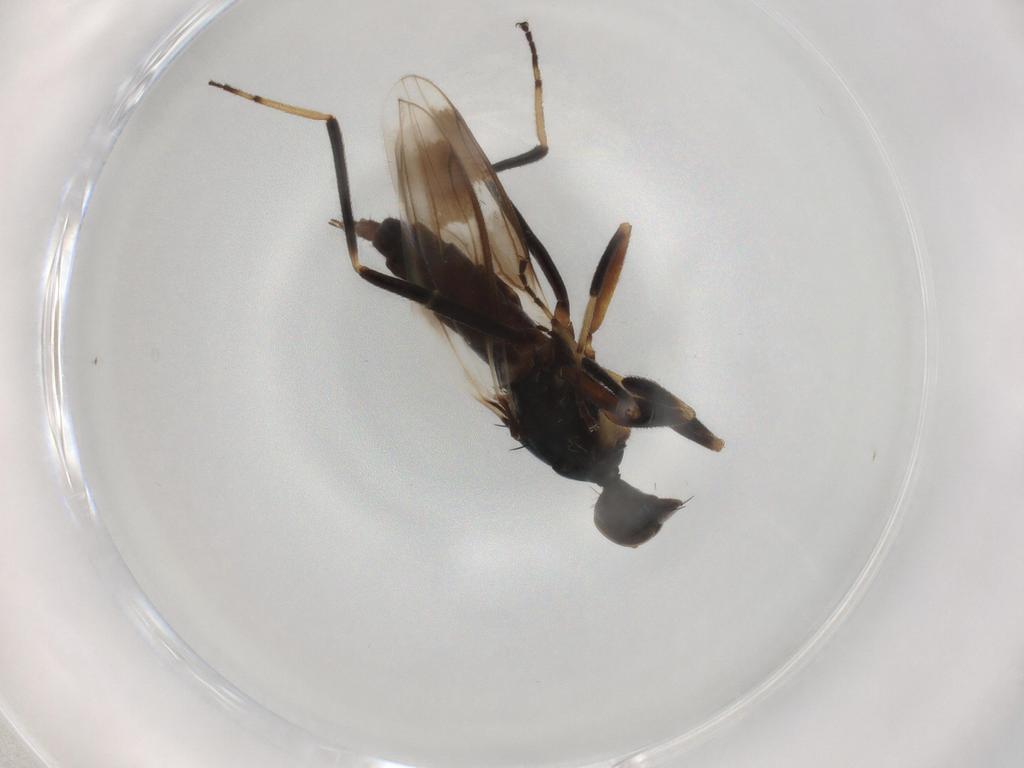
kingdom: Animalia
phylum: Arthropoda
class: Insecta
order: Diptera
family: Hybotidae
